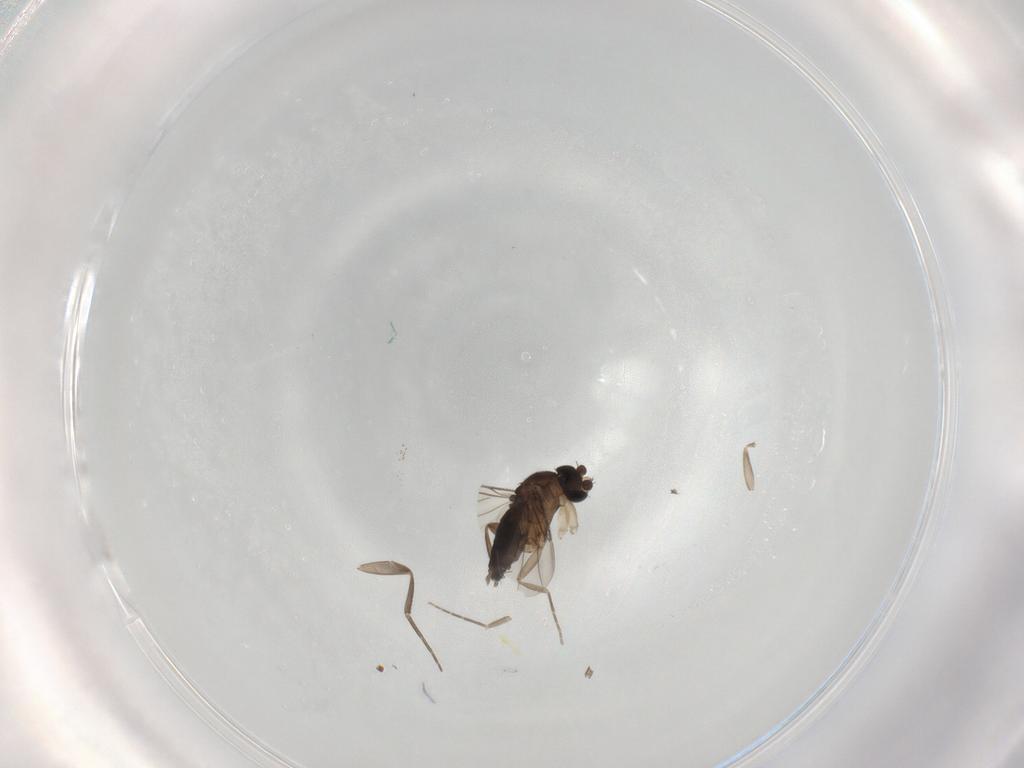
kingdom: Animalia
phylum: Arthropoda
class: Insecta
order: Diptera
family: Phoridae
